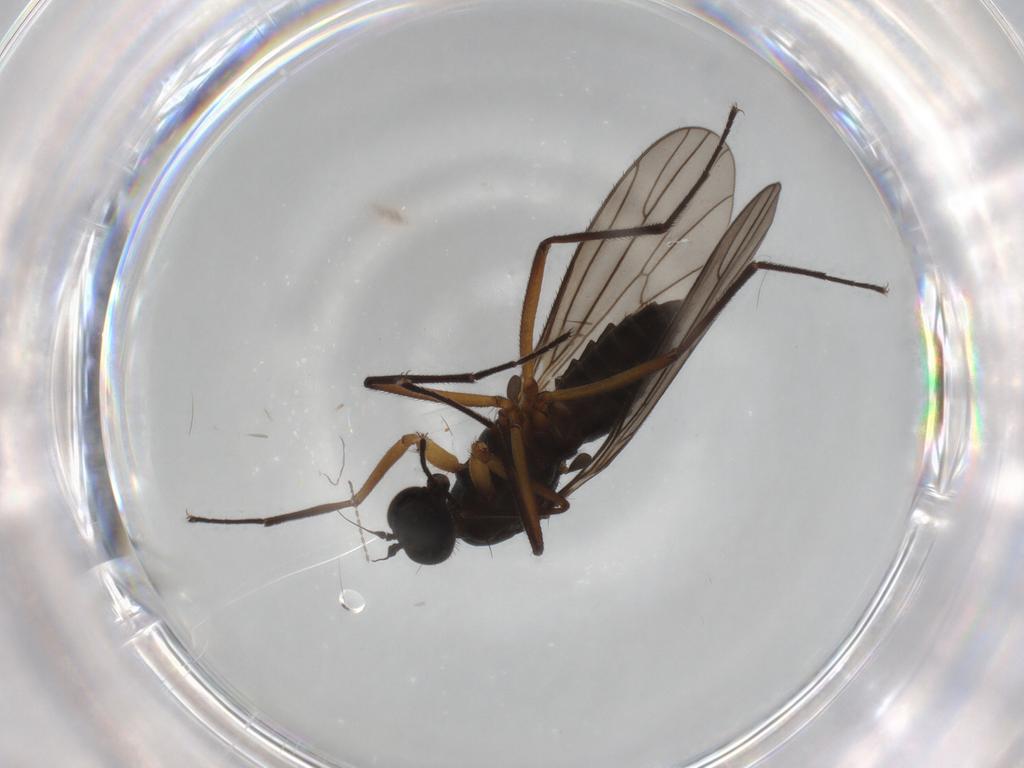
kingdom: Animalia
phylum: Arthropoda
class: Insecta
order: Diptera
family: Empididae
